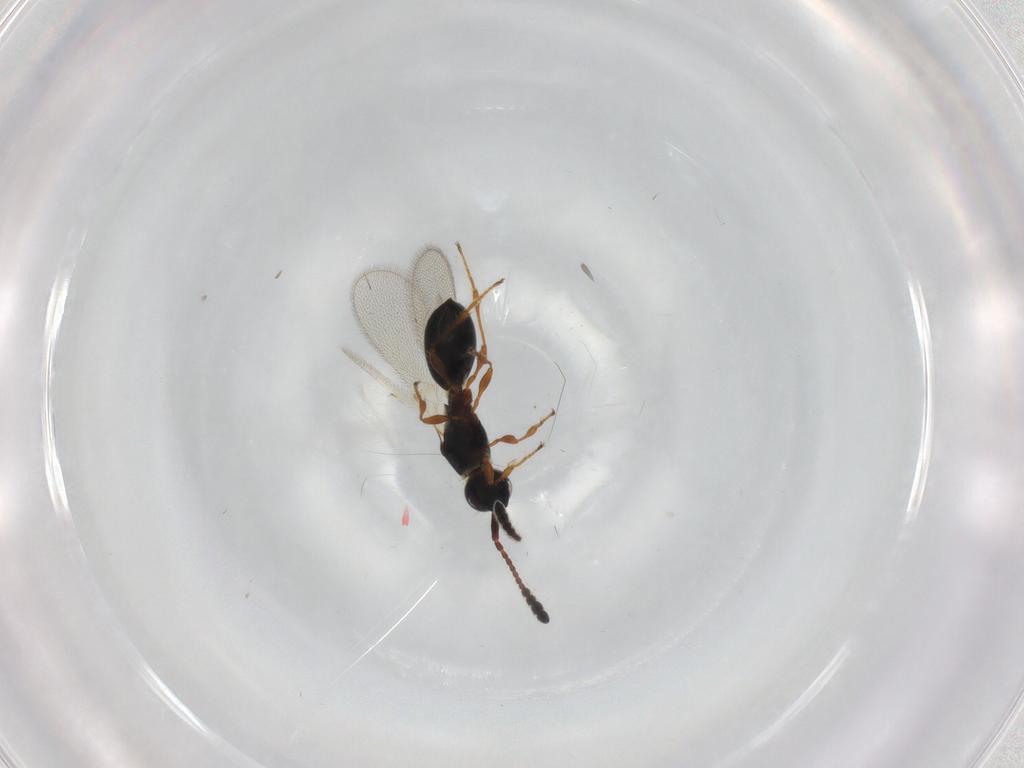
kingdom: Animalia
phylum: Arthropoda
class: Insecta
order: Hymenoptera
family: Diapriidae
